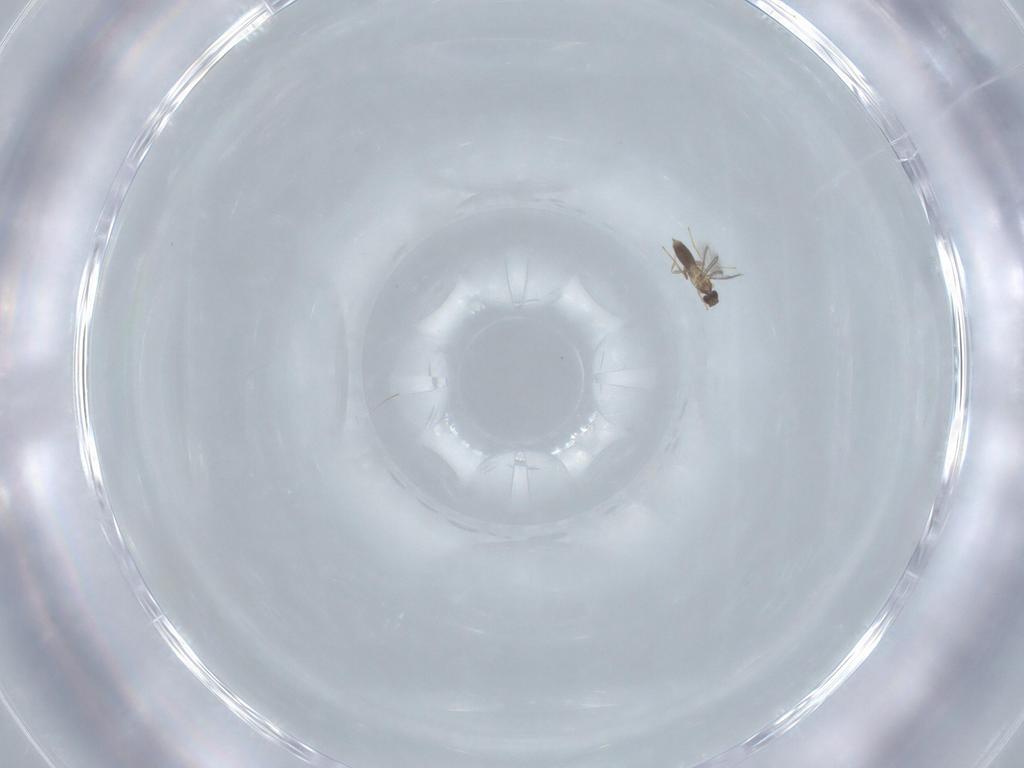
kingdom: Animalia
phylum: Arthropoda
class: Insecta
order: Hymenoptera
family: Mymaridae
